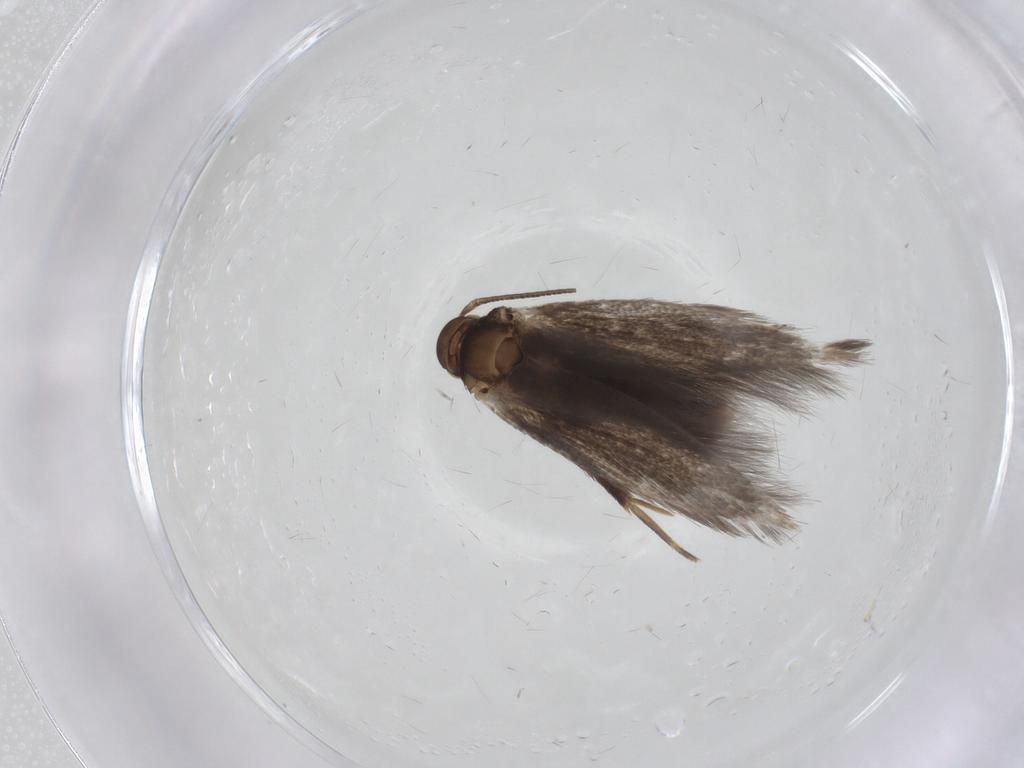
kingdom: Animalia
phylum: Arthropoda
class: Insecta
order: Lepidoptera
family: Elachistidae
